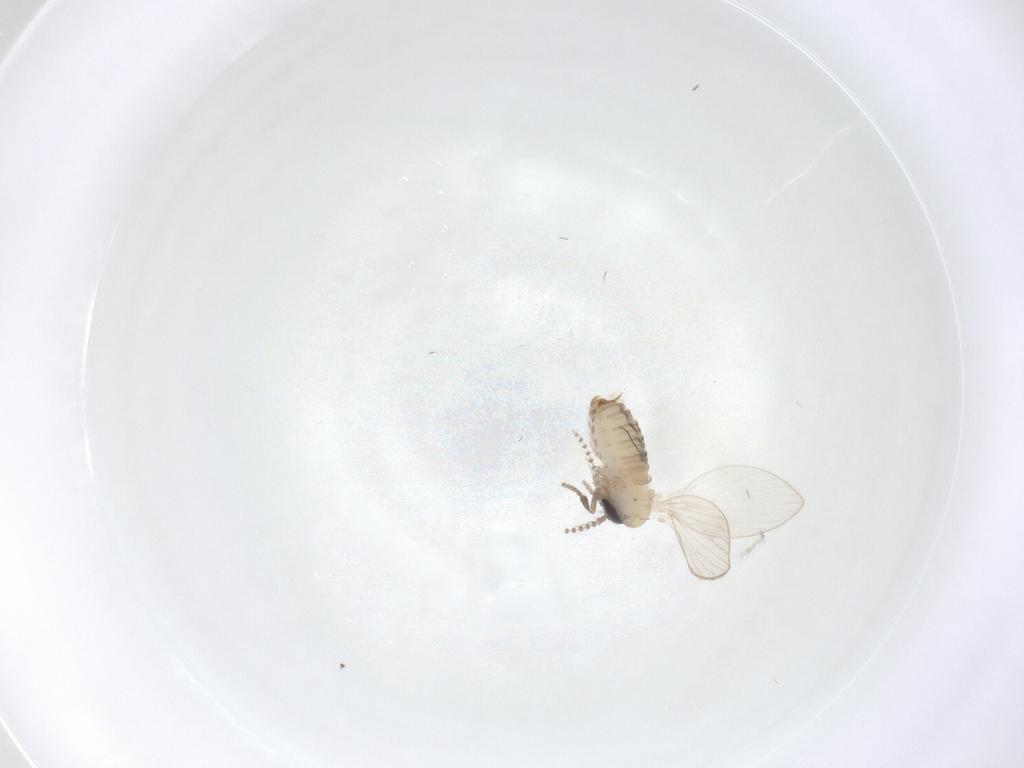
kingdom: Animalia
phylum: Arthropoda
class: Insecta
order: Diptera
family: Psychodidae
